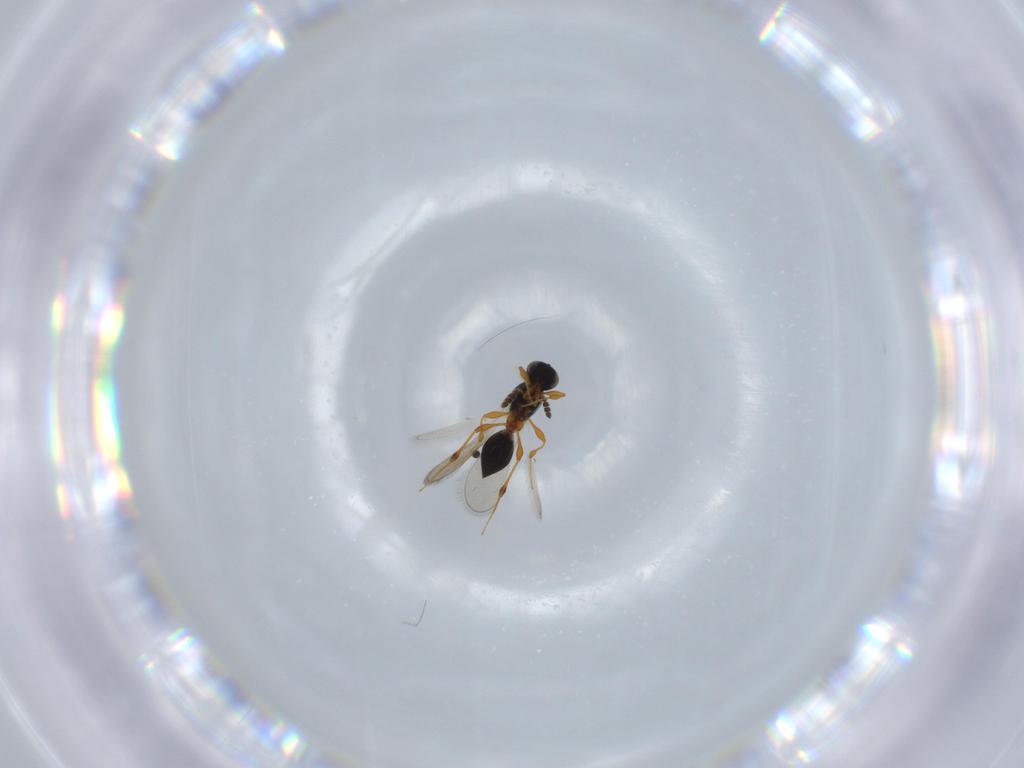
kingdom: Animalia
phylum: Arthropoda
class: Insecta
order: Hymenoptera
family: Platygastridae
